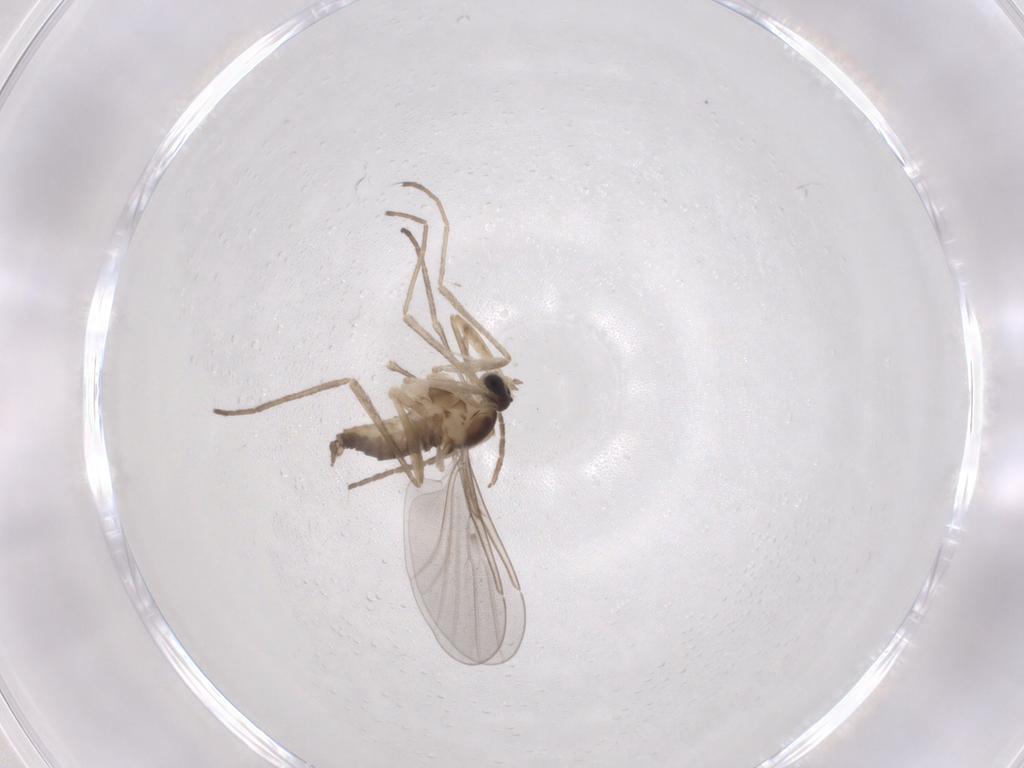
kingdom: Animalia
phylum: Arthropoda
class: Insecta
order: Diptera
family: Cecidomyiidae
